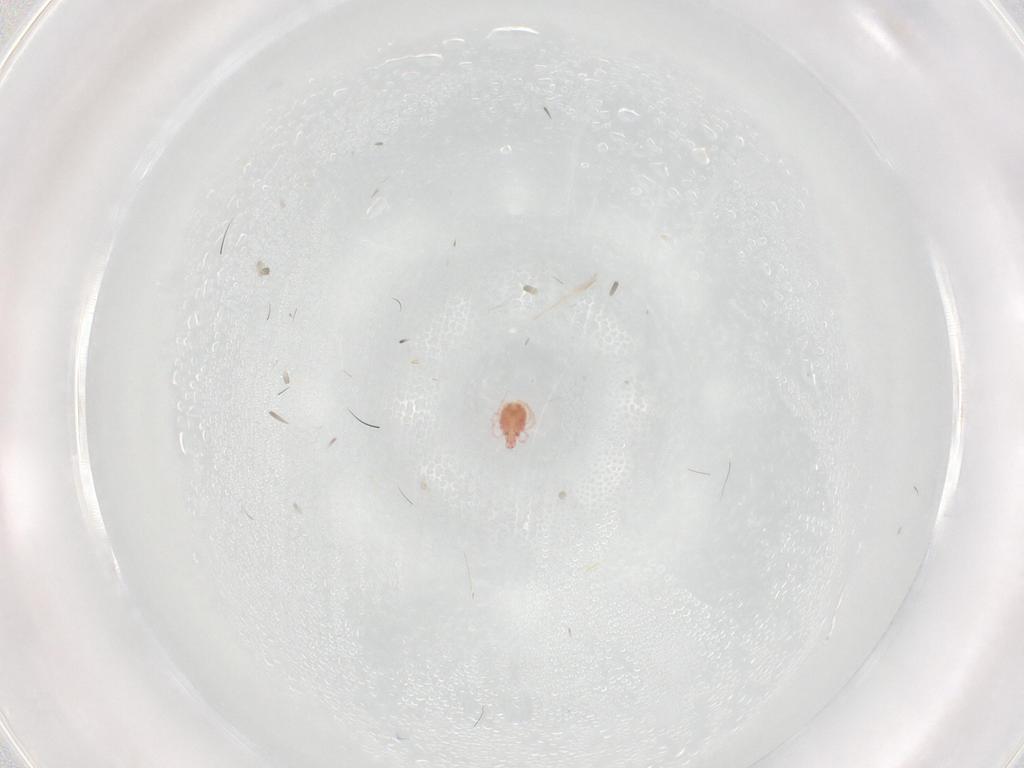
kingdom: Animalia
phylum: Arthropoda
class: Arachnida
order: Trombidiformes
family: Pionidae
